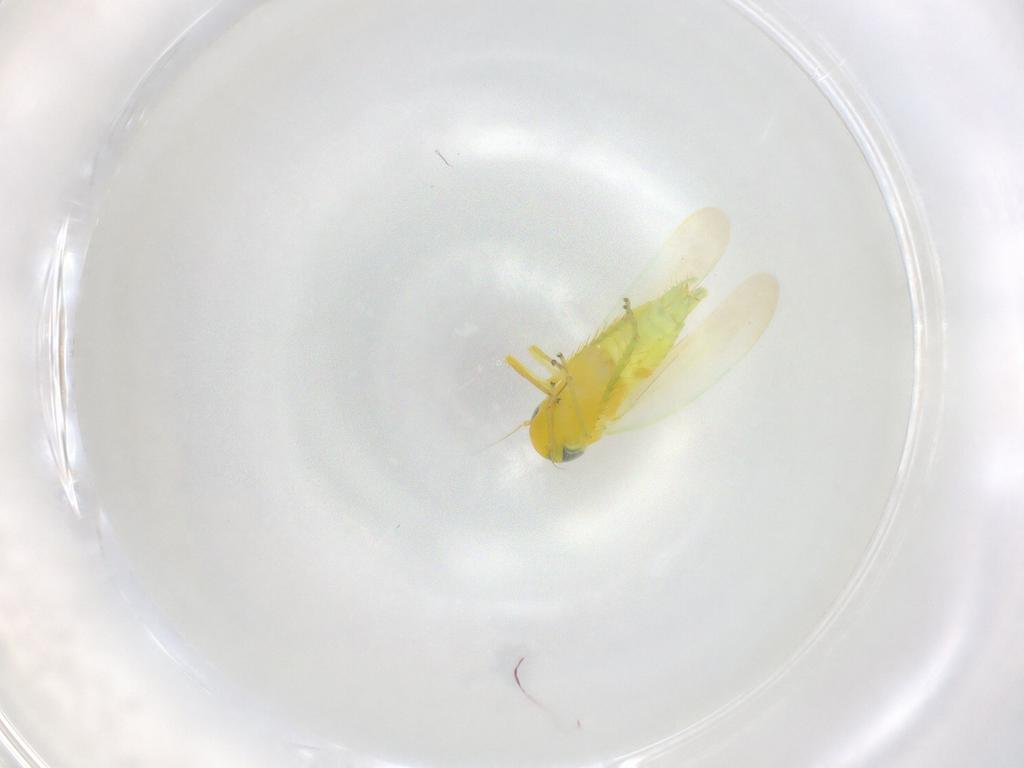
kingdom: Animalia
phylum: Arthropoda
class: Insecta
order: Hemiptera
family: Cicadellidae
